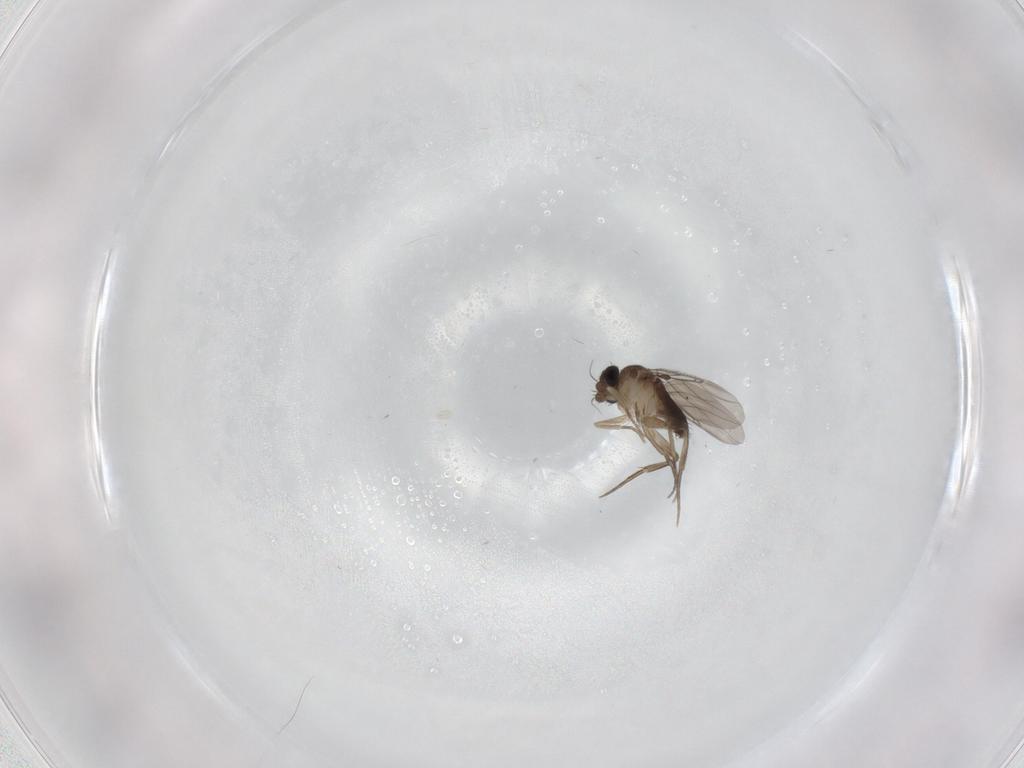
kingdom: Animalia
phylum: Arthropoda
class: Insecta
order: Diptera
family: Phoridae
